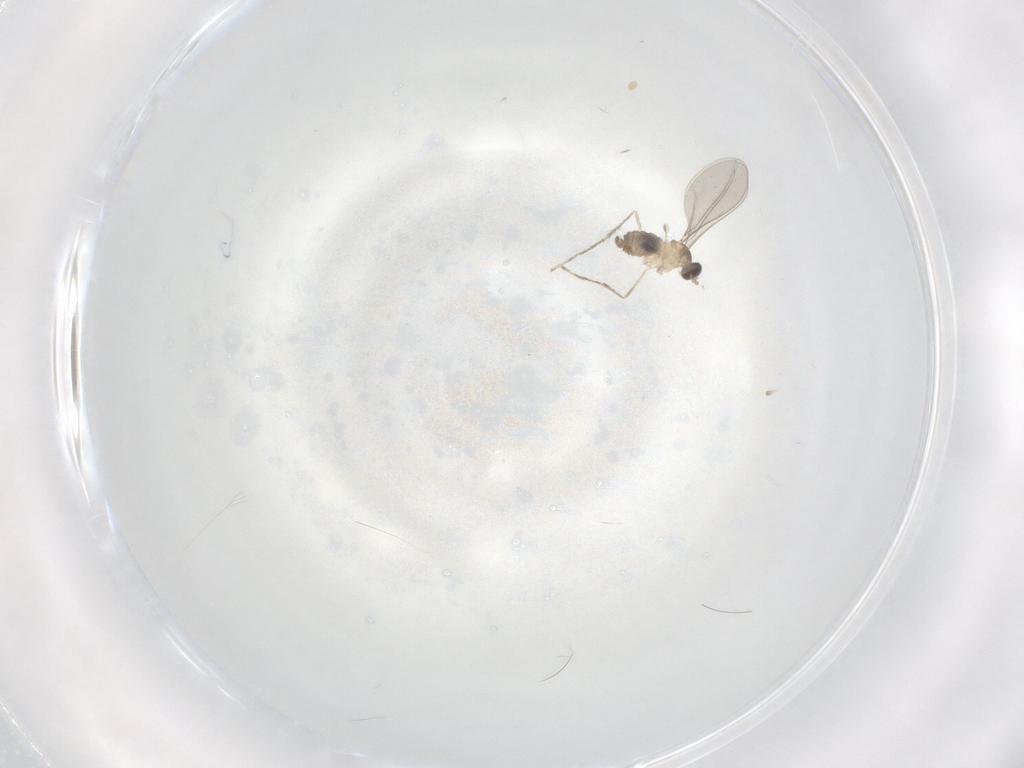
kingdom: Animalia
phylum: Arthropoda
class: Insecta
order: Diptera
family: Cecidomyiidae
